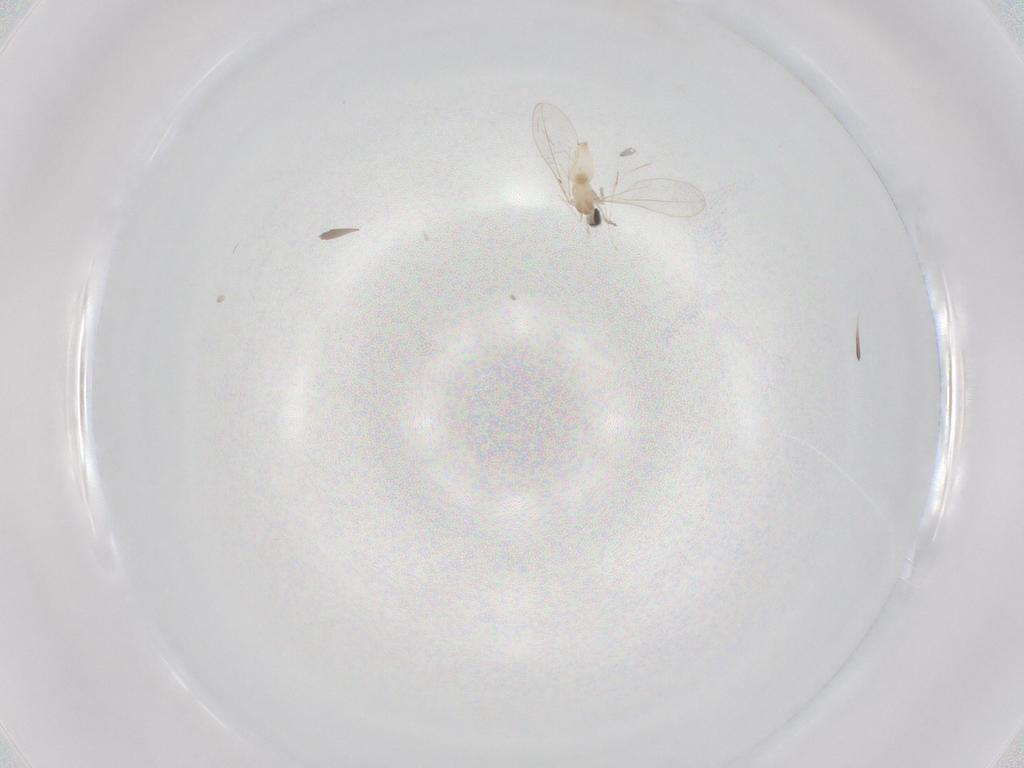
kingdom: Animalia
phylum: Arthropoda
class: Insecta
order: Diptera
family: Cecidomyiidae
